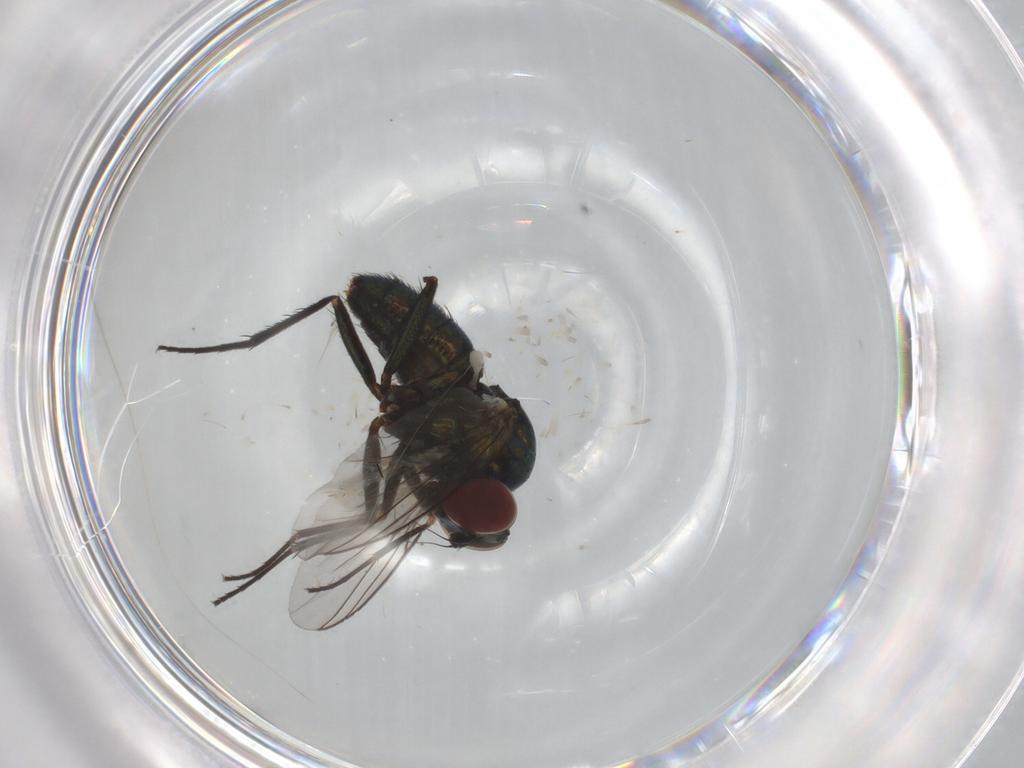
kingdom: Animalia
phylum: Arthropoda
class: Insecta
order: Diptera
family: Dolichopodidae
